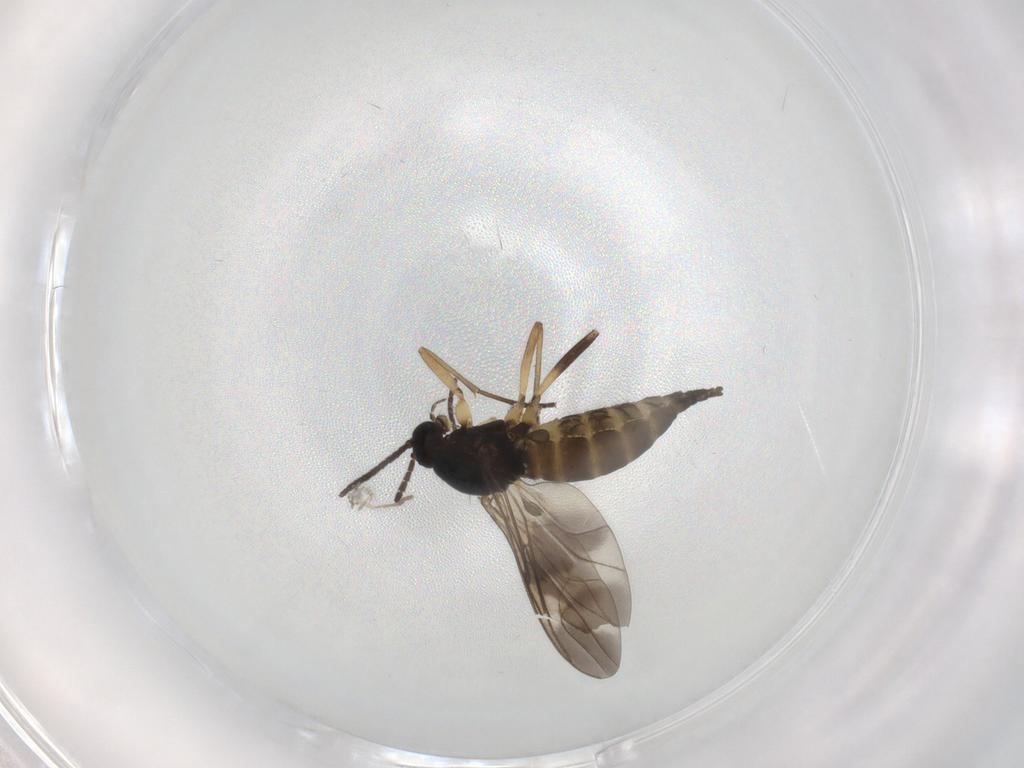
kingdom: Animalia
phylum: Arthropoda
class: Insecta
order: Diptera
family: Sciaridae
